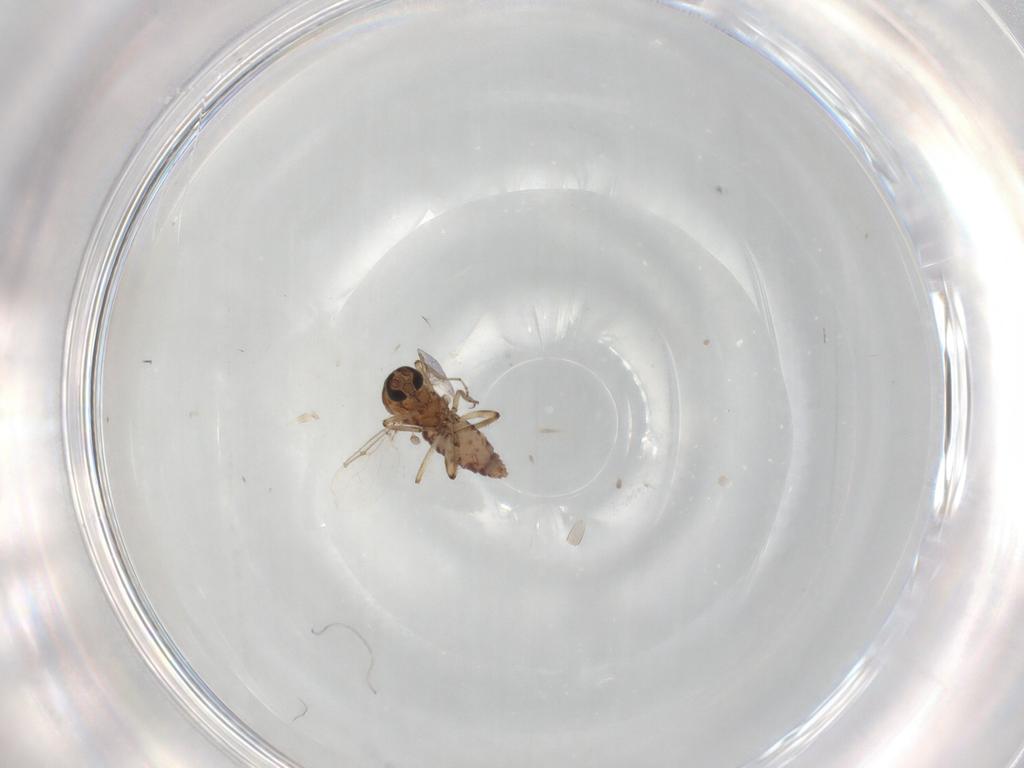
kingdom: Animalia
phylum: Arthropoda
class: Insecta
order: Diptera
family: Ceratopogonidae
